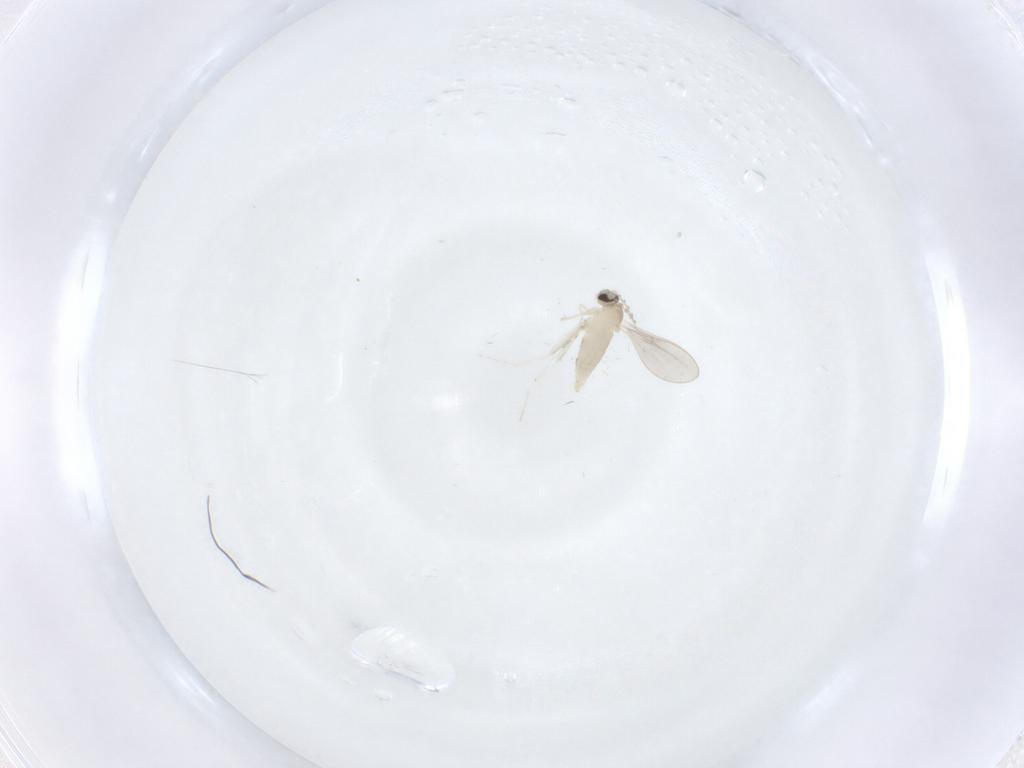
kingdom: Animalia
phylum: Arthropoda
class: Insecta
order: Diptera
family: Cecidomyiidae
